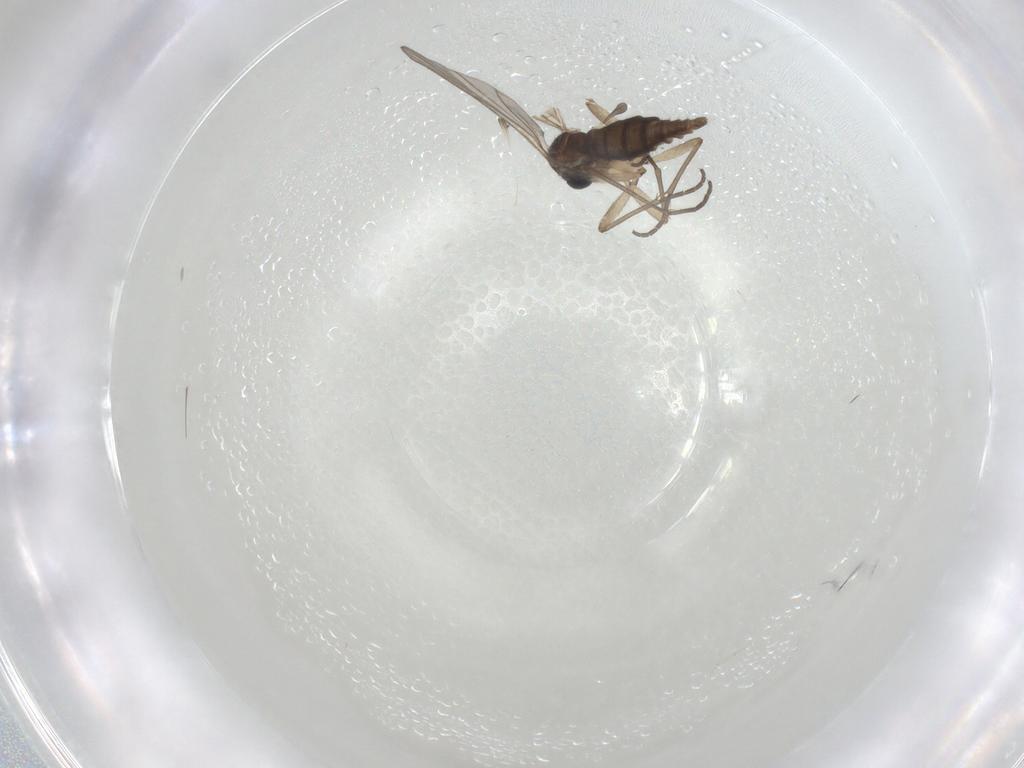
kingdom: Animalia
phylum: Arthropoda
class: Insecta
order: Diptera
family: Sciaridae
